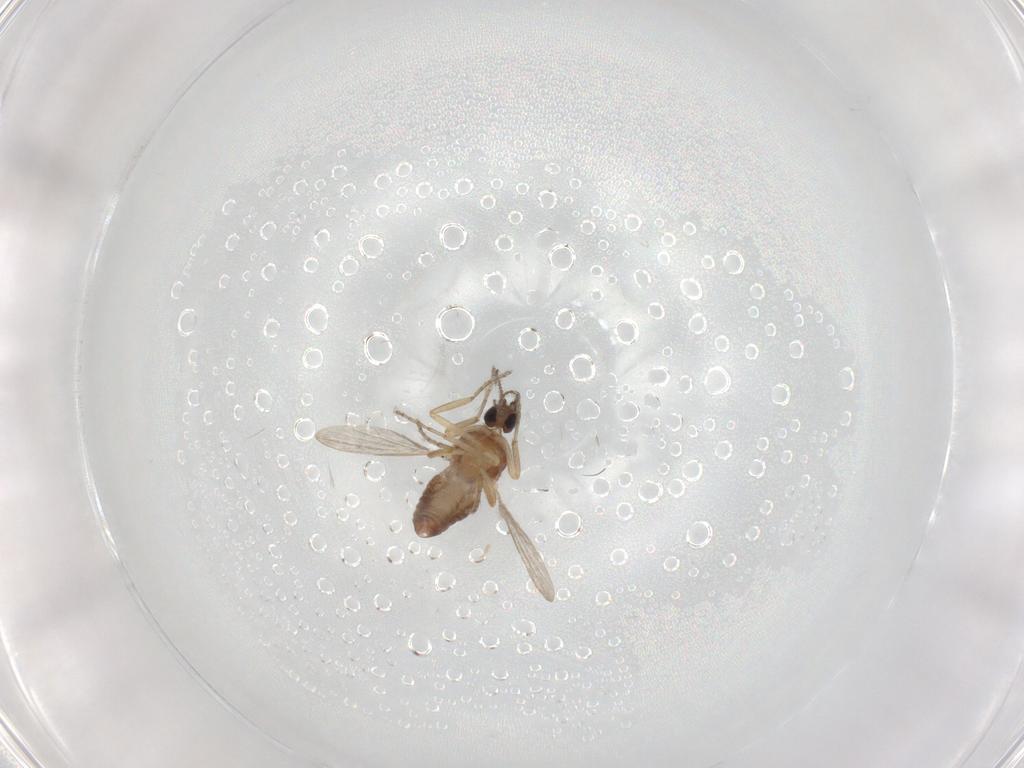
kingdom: Animalia
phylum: Arthropoda
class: Insecta
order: Diptera
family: Ceratopogonidae
